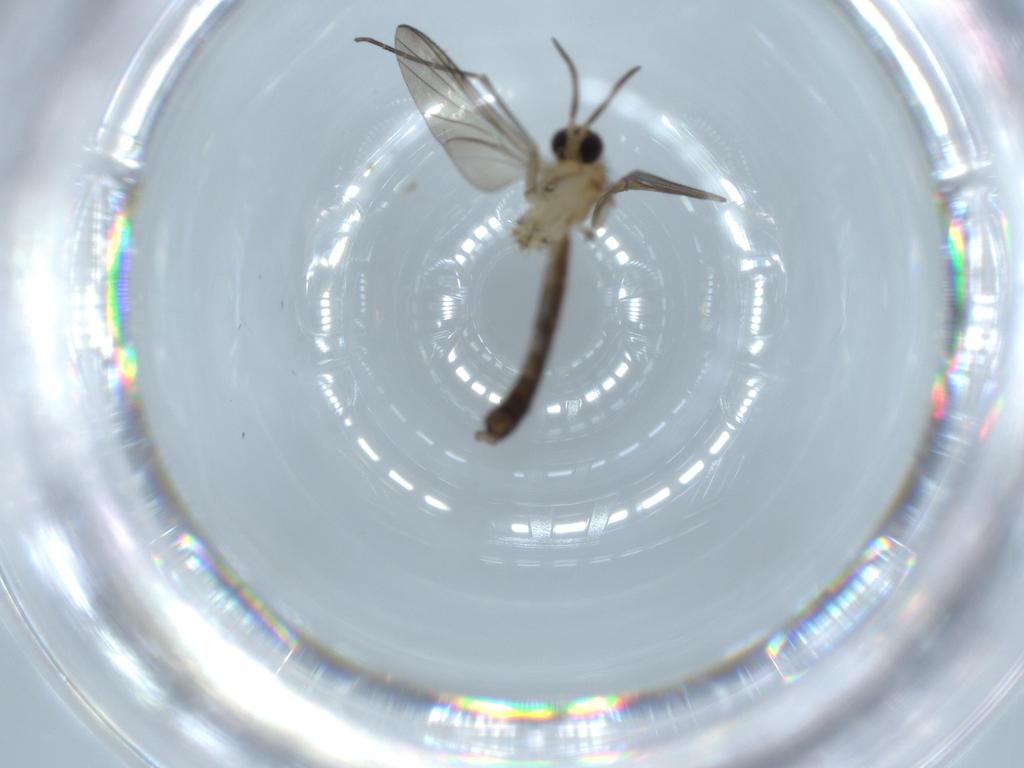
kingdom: Animalia
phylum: Arthropoda
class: Insecta
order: Diptera
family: Keroplatidae
